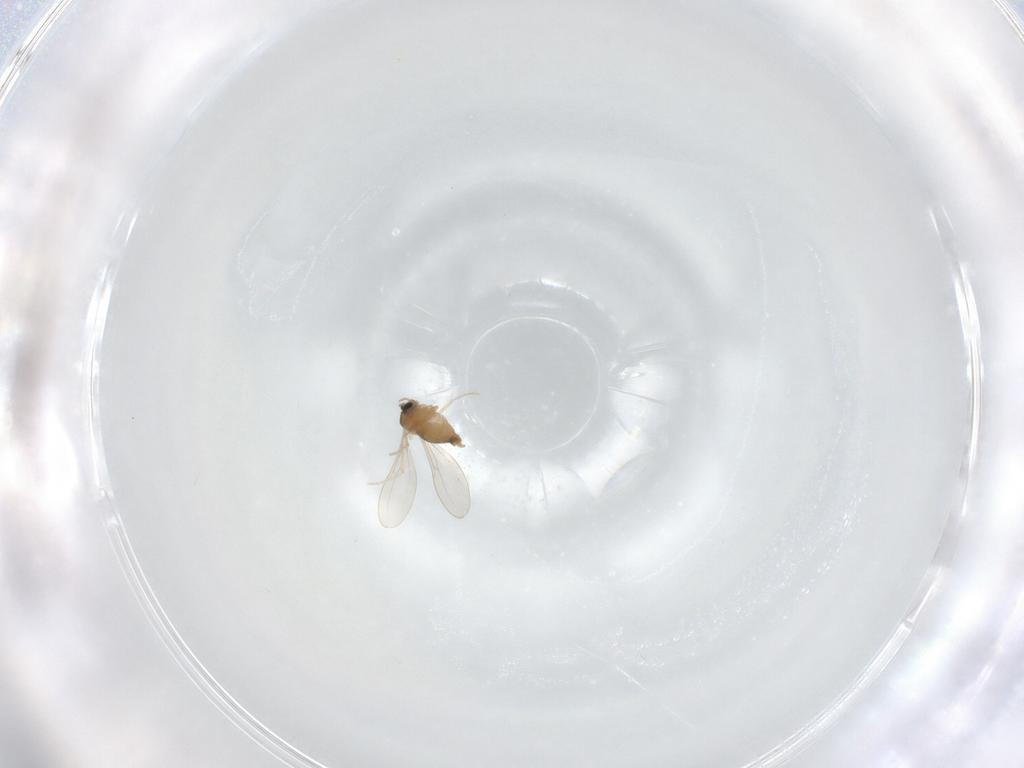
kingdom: Animalia
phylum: Arthropoda
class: Insecta
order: Diptera
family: Cecidomyiidae
